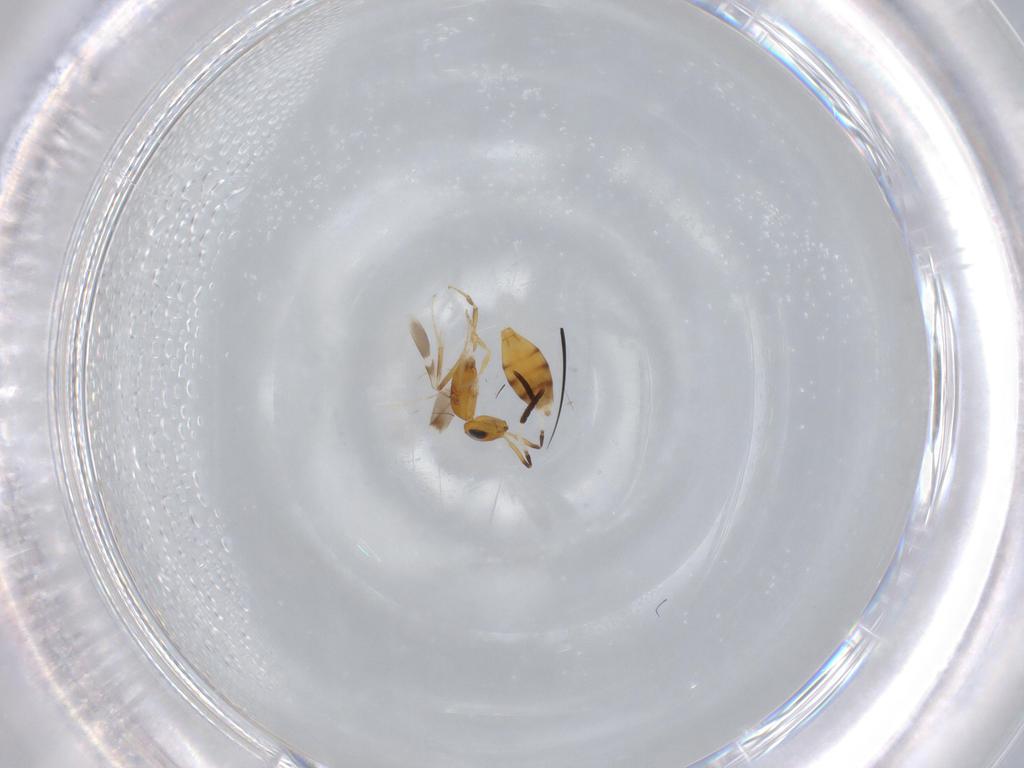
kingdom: Animalia
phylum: Arthropoda
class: Insecta
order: Hymenoptera
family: Scelionidae
